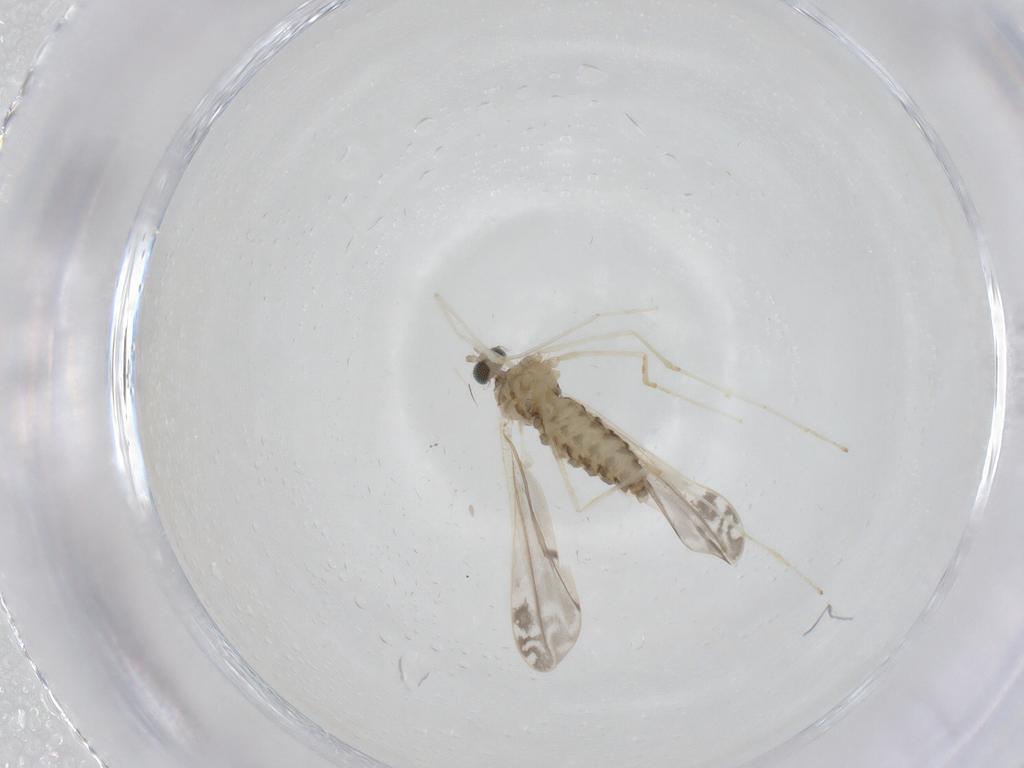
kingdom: Animalia
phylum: Arthropoda
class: Insecta
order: Diptera
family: Cecidomyiidae
